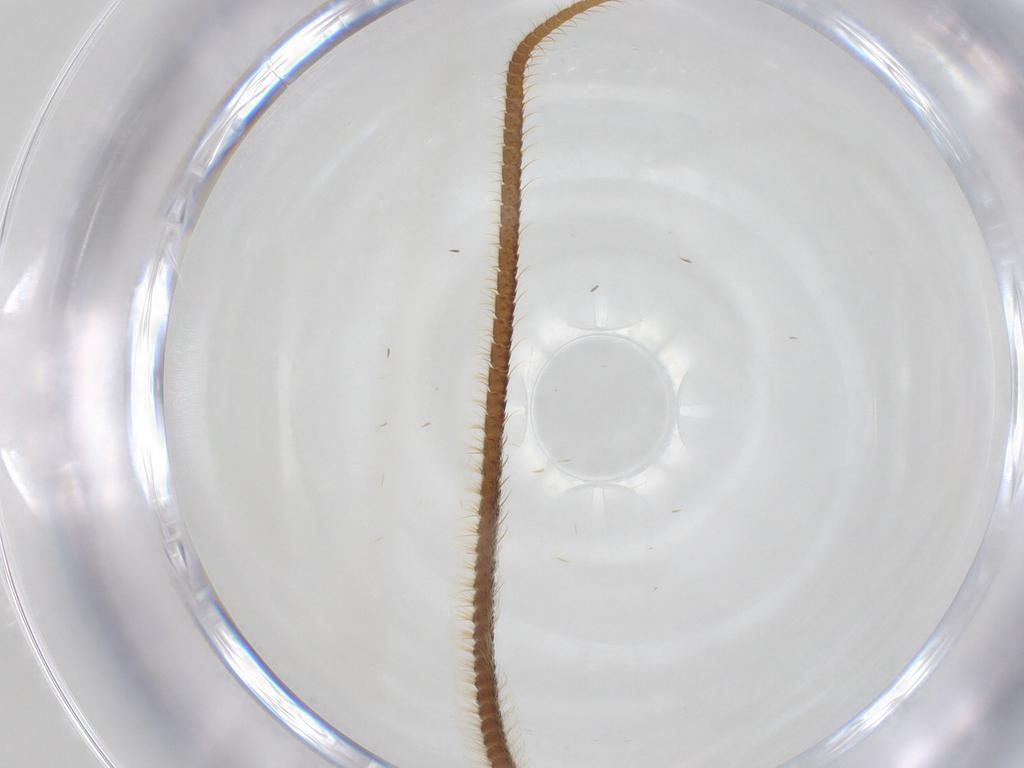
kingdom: Animalia
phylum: Arthropoda
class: Insecta
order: Lepidoptera
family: Noctuidae
